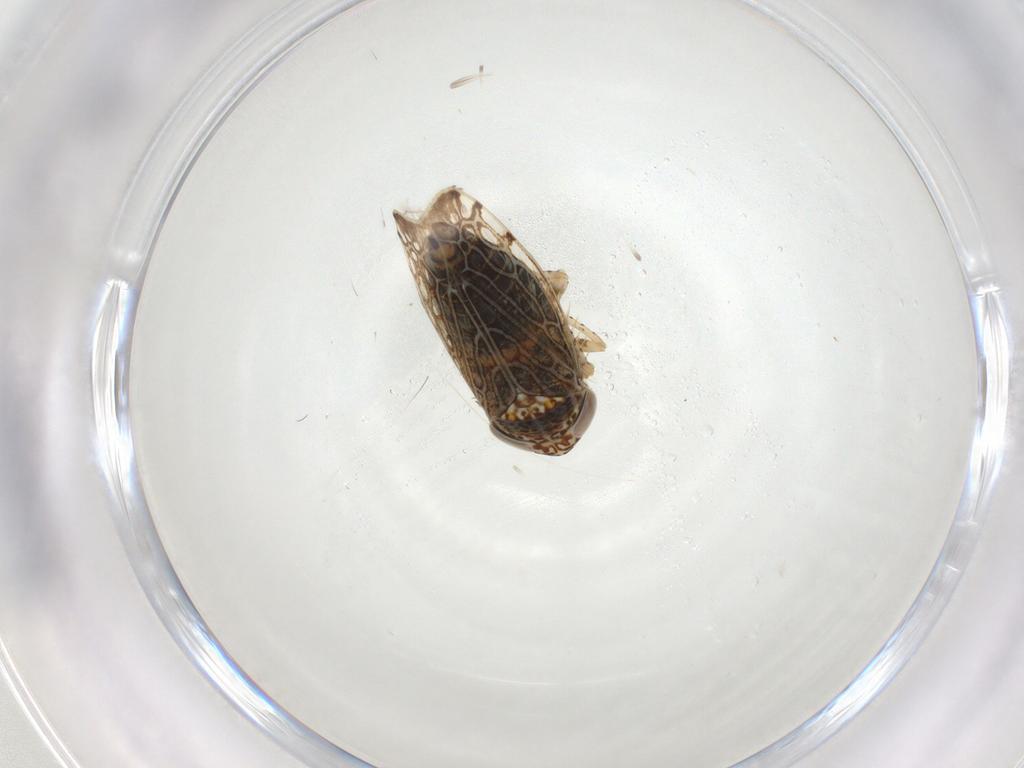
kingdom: Animalia
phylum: Arthropoda
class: Insecta
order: Hemiptera
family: Cicadellidae
